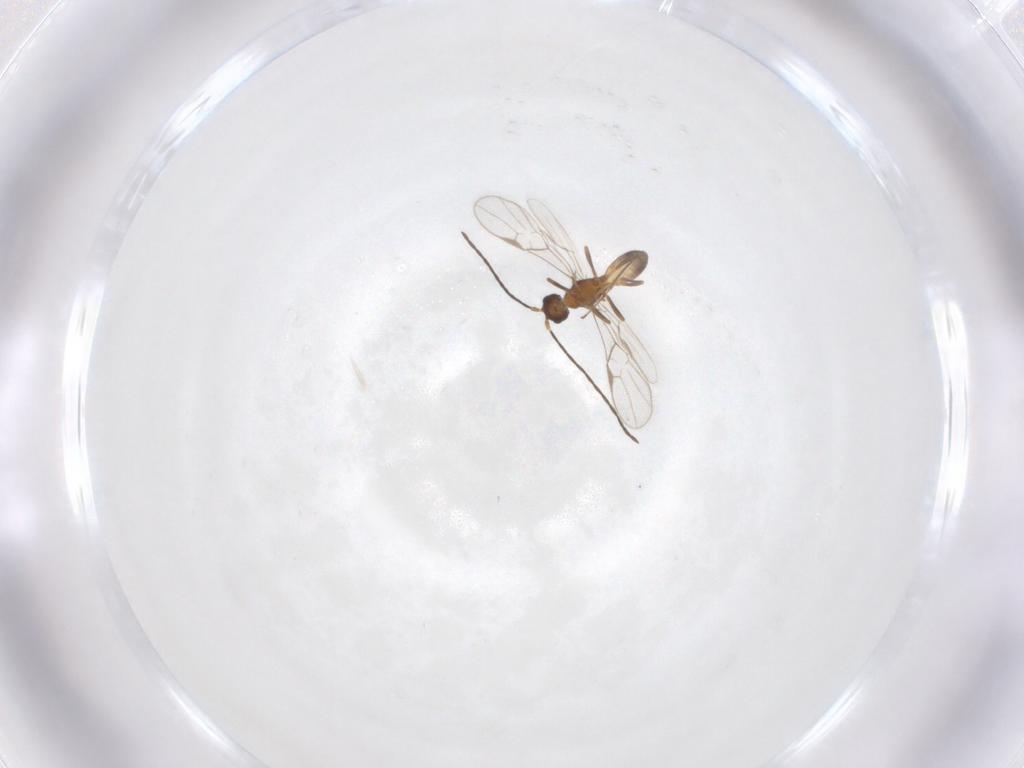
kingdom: Animalia
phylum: Arthropoda
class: Insecta
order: Hymenoptera
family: Braconidae
